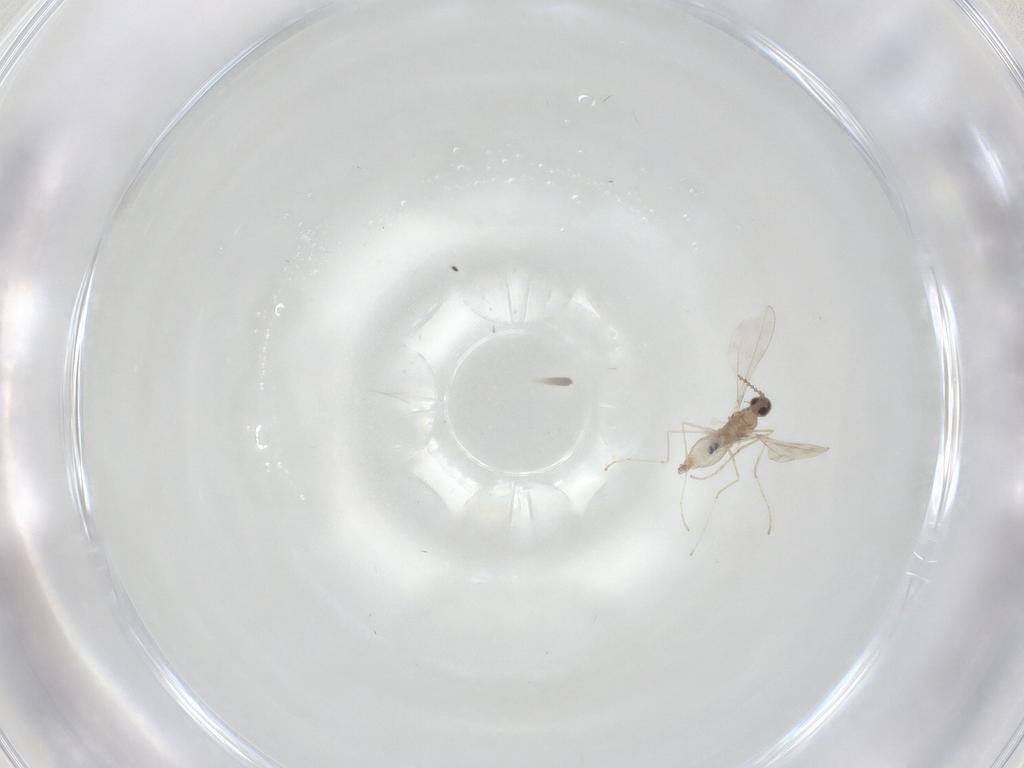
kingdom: Animalia
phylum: Arthropoda
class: Insecta
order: Diptera
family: Cecidomyiidae
